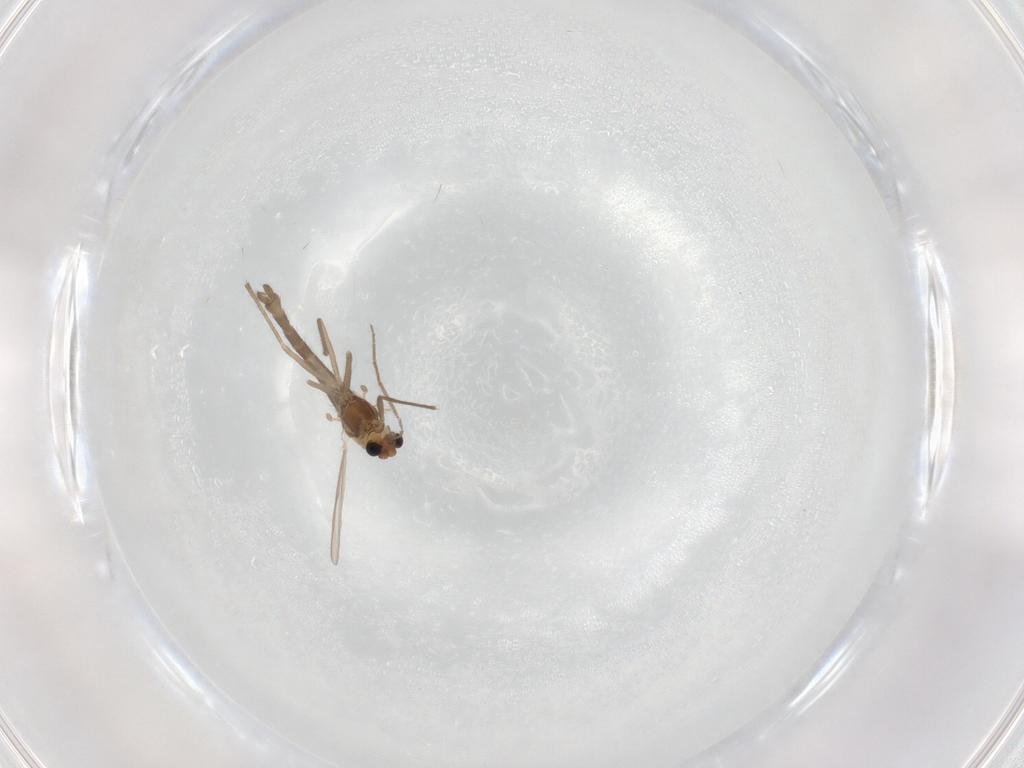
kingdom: Animalia
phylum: Arthropoda
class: Insecta
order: Diptera
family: Chironomidae
